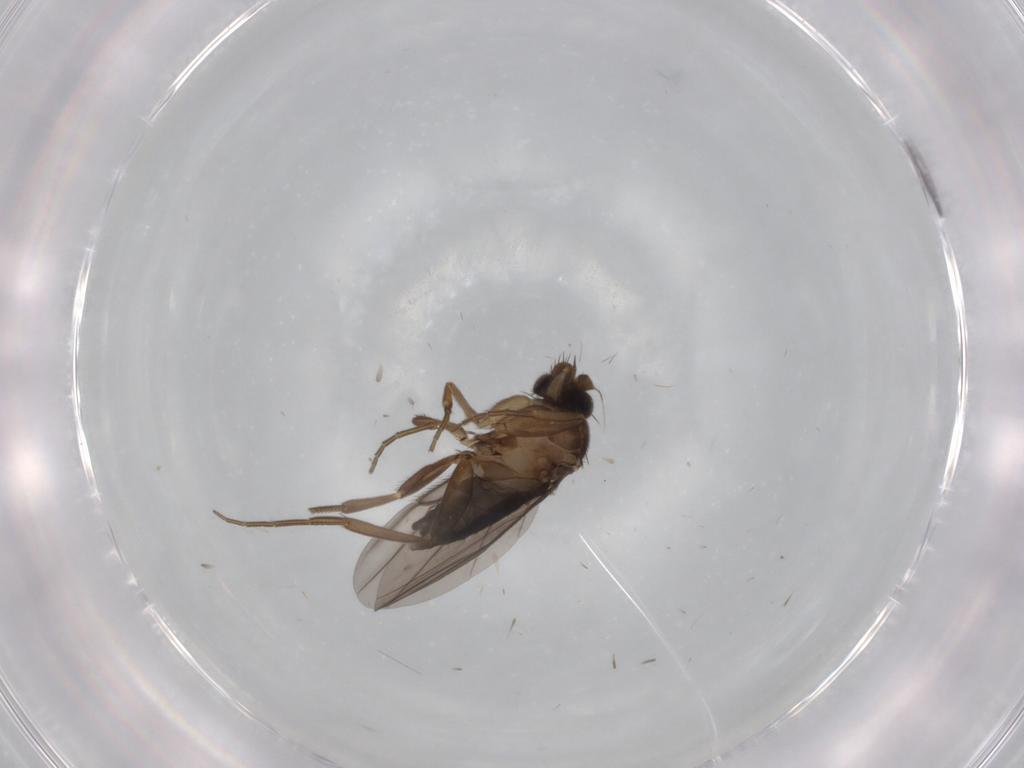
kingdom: Animalia
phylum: Arthropoda
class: Insecta
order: Diptera
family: Phoridae
